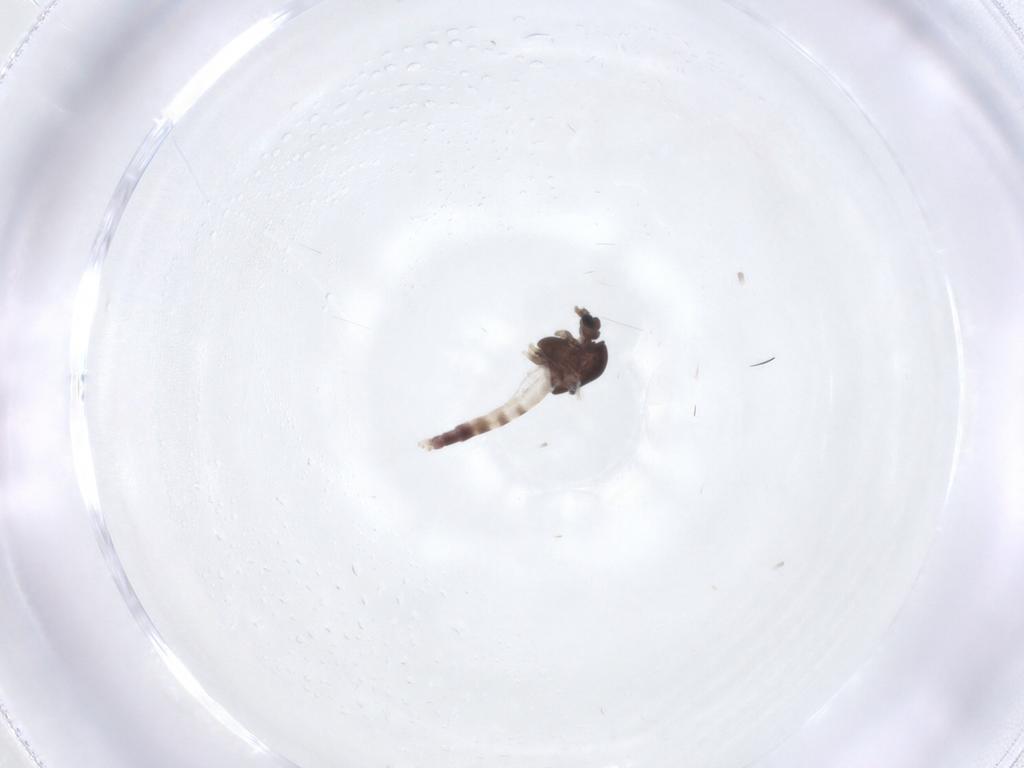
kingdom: Animalia
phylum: Arthropoda
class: Insecta
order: Diptera
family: Chironomidae
